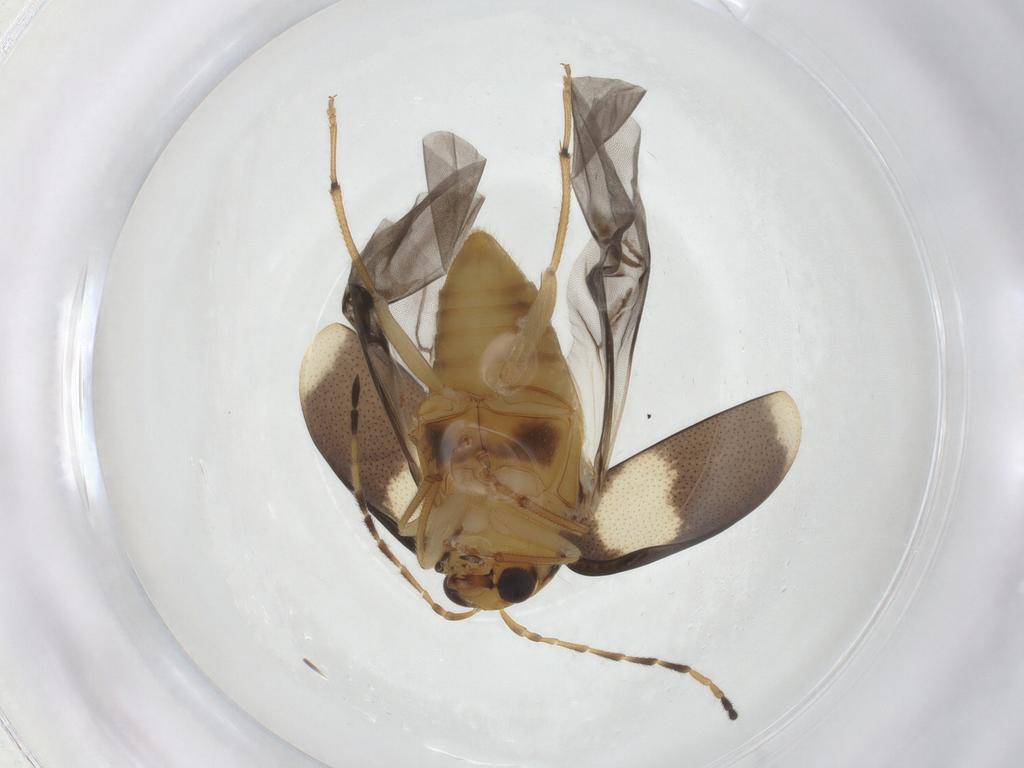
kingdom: Animalia
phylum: Arthropoda
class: Insecta
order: Coleoptera
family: Chrysomelidae
